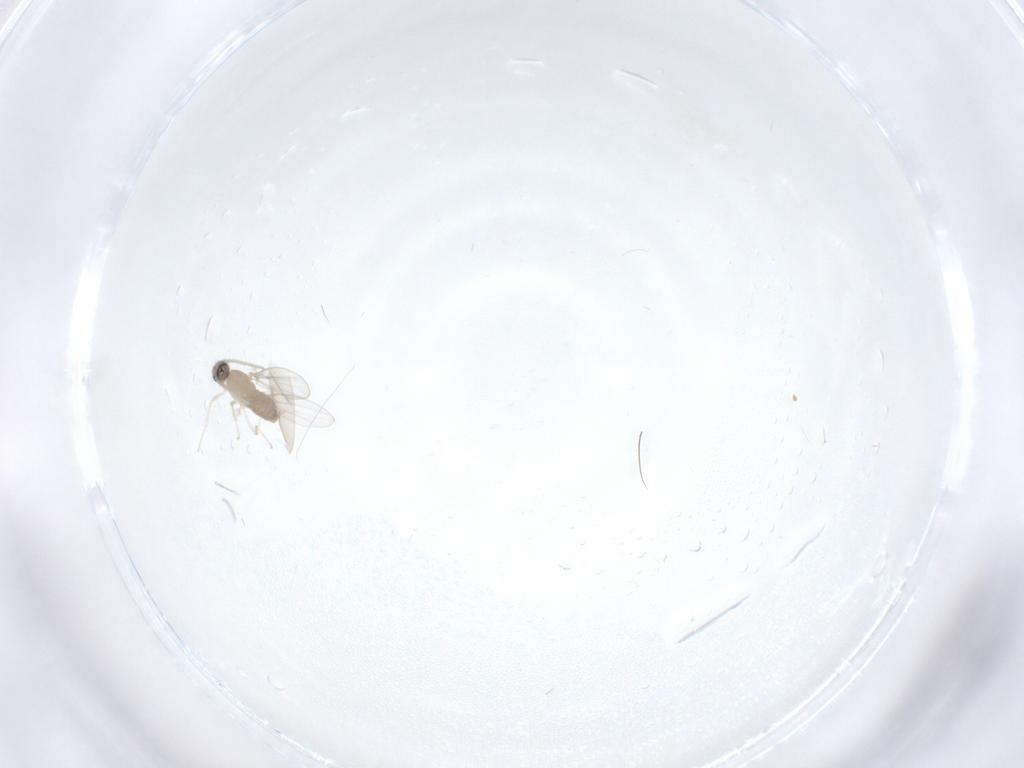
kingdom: Animalia
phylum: Arthropoda
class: Insecta
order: Diptera
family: Cecidomyiidae
